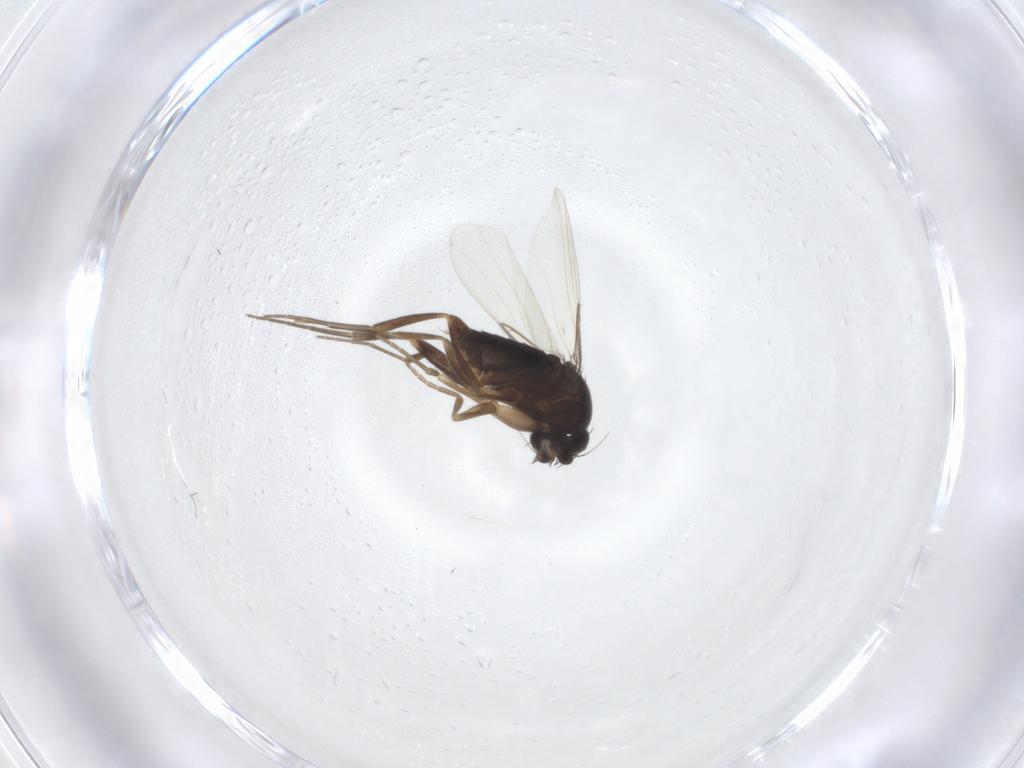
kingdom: Animalia
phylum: Arthropoda
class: Insecta
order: Diptera
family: Phoridae
